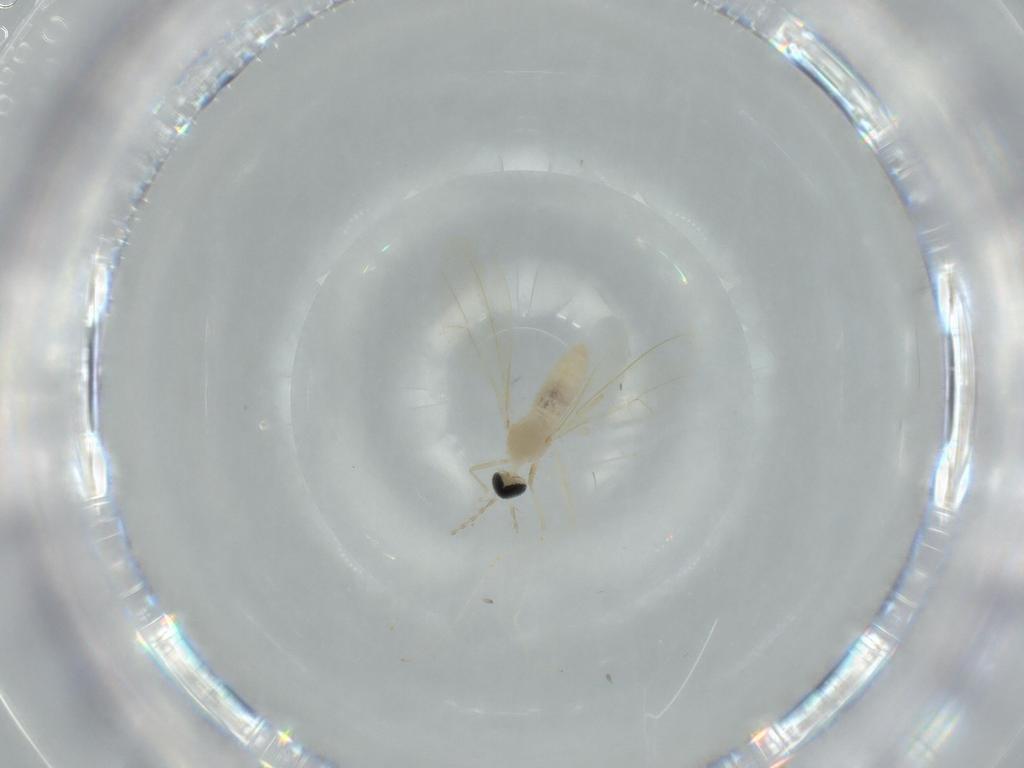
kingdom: Animalia
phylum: Arthropoda
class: Insecta
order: Diptera
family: Cecidomyiidae
